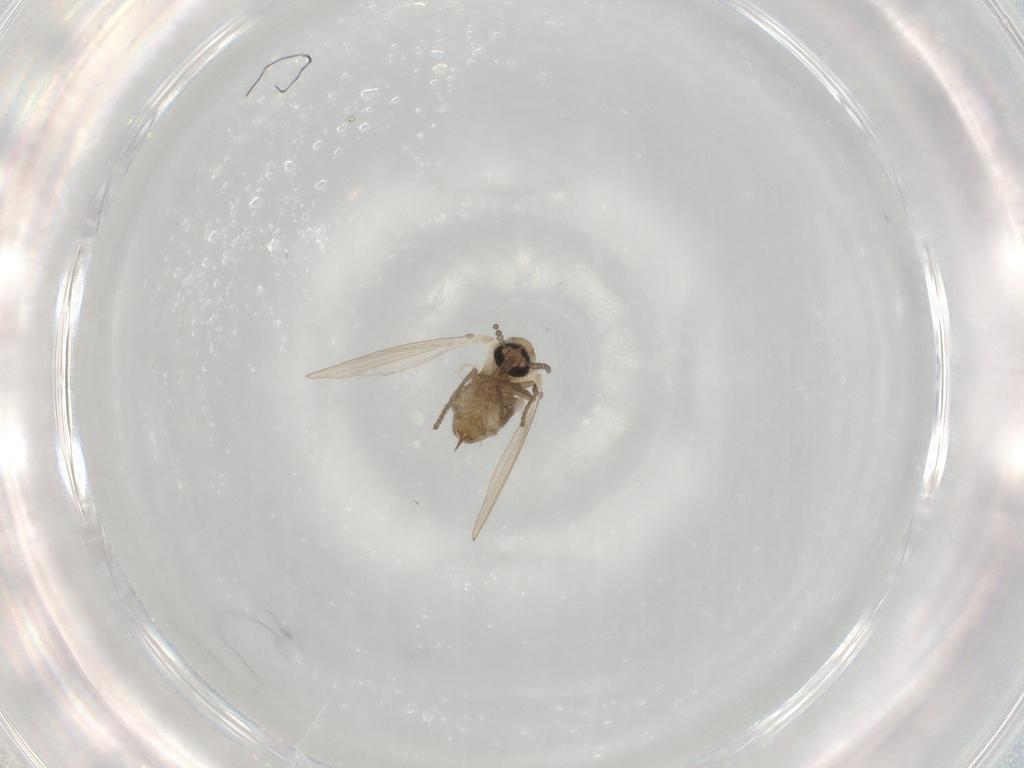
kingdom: Animalia
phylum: Arthropoda
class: Insecta
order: Diptera
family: Psychodidae
